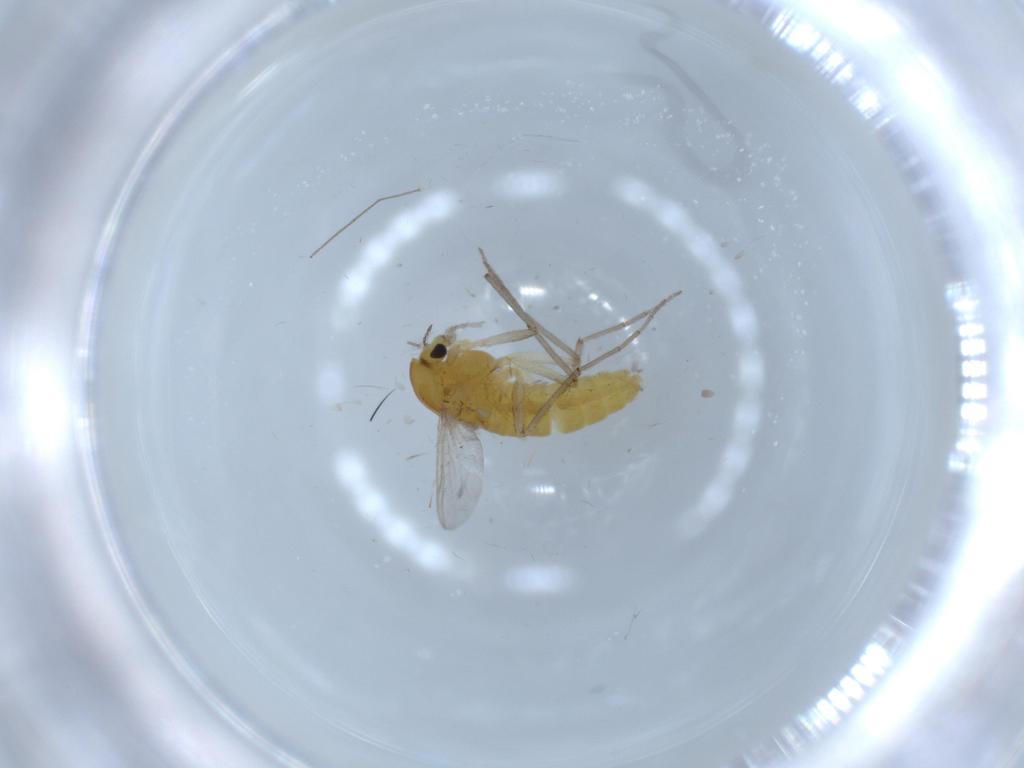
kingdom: Animalia
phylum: Arthropoda
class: Insecta
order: Diptera
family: Chironomidae
